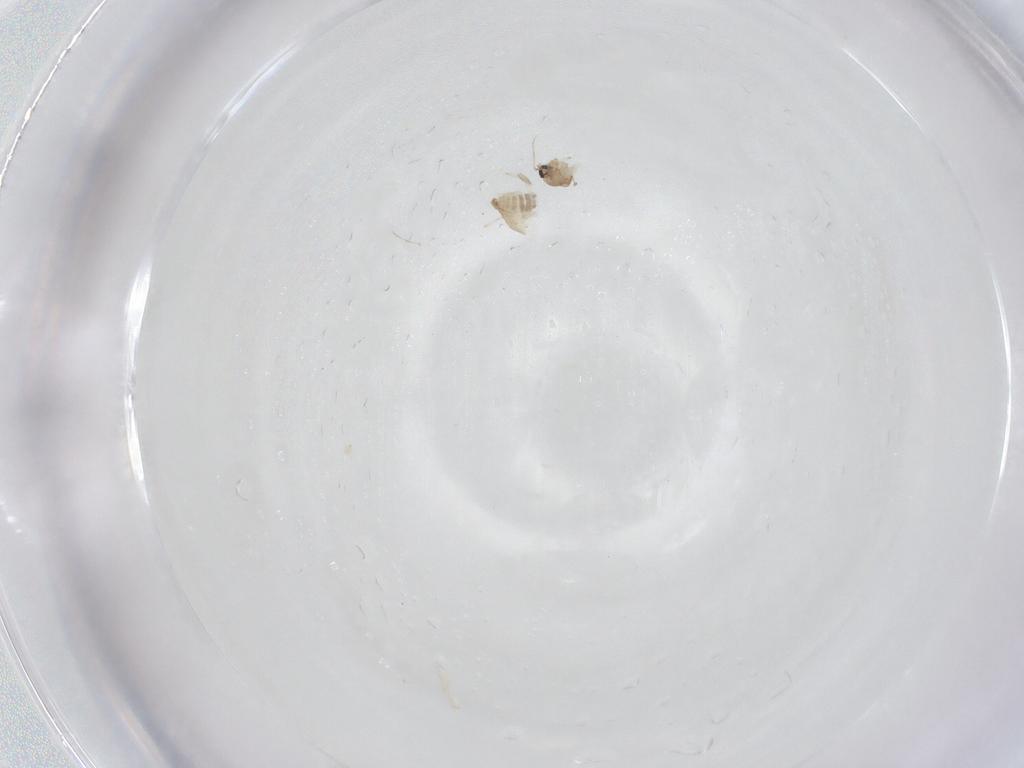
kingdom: Animalia
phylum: Arthropoda
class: Insecta
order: Diptera
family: Ceratopogonidae
